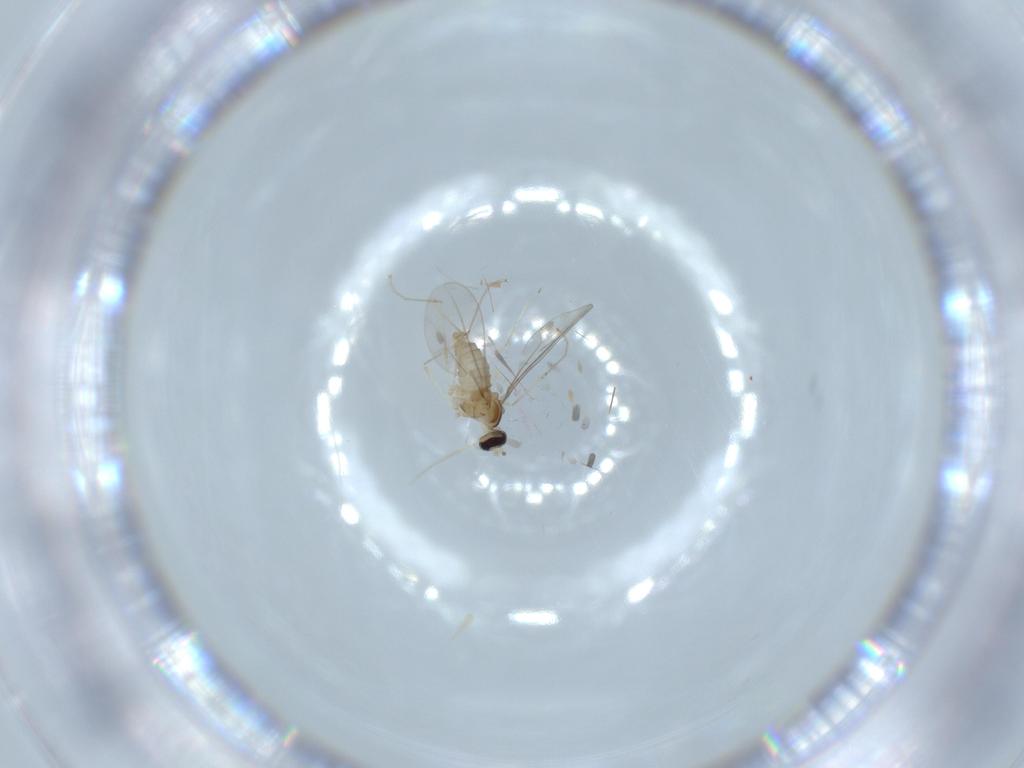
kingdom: Animalia
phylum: Arthropoda
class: Insecta
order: Diptera
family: Cecidomyiidae
